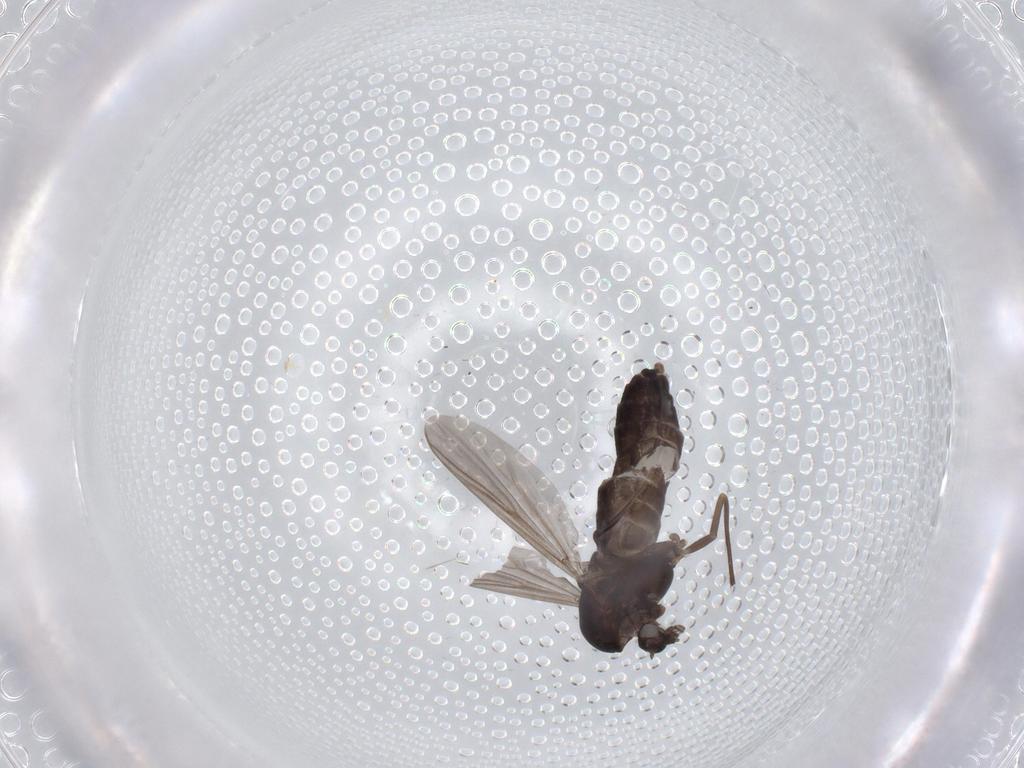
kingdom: Animalia
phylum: Arthropoda
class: Insecta
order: Diptera
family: Chironomidae
